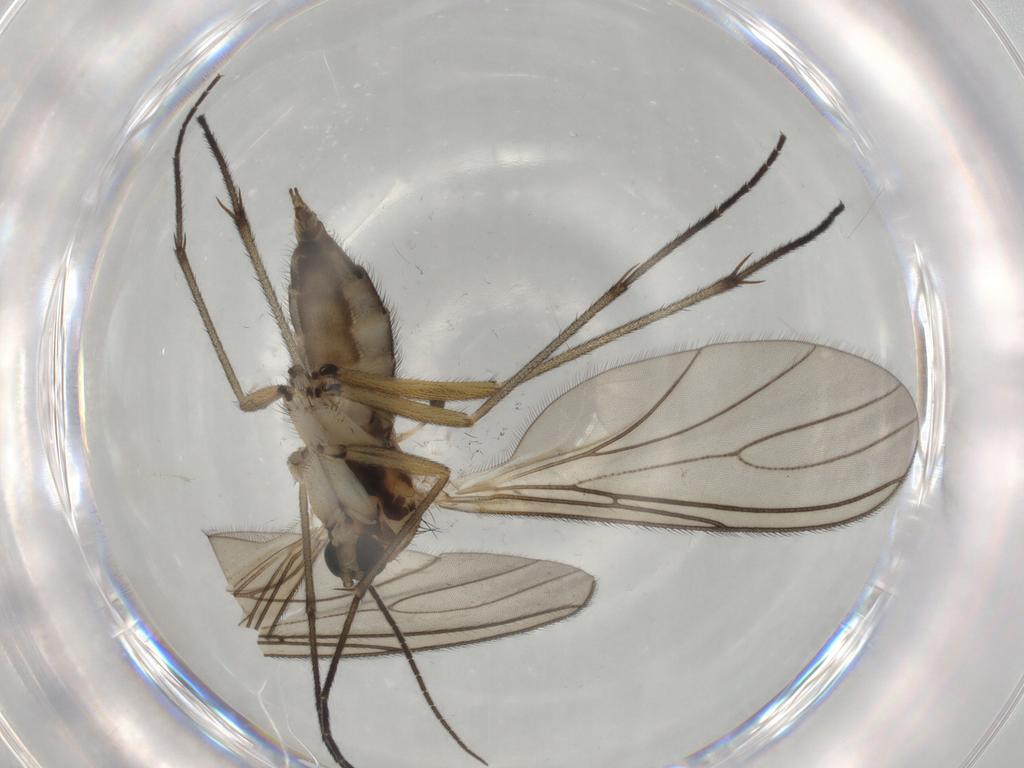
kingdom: Animalia
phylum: Arthropoda
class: Insecta
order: Diptera
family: Sciaridae
